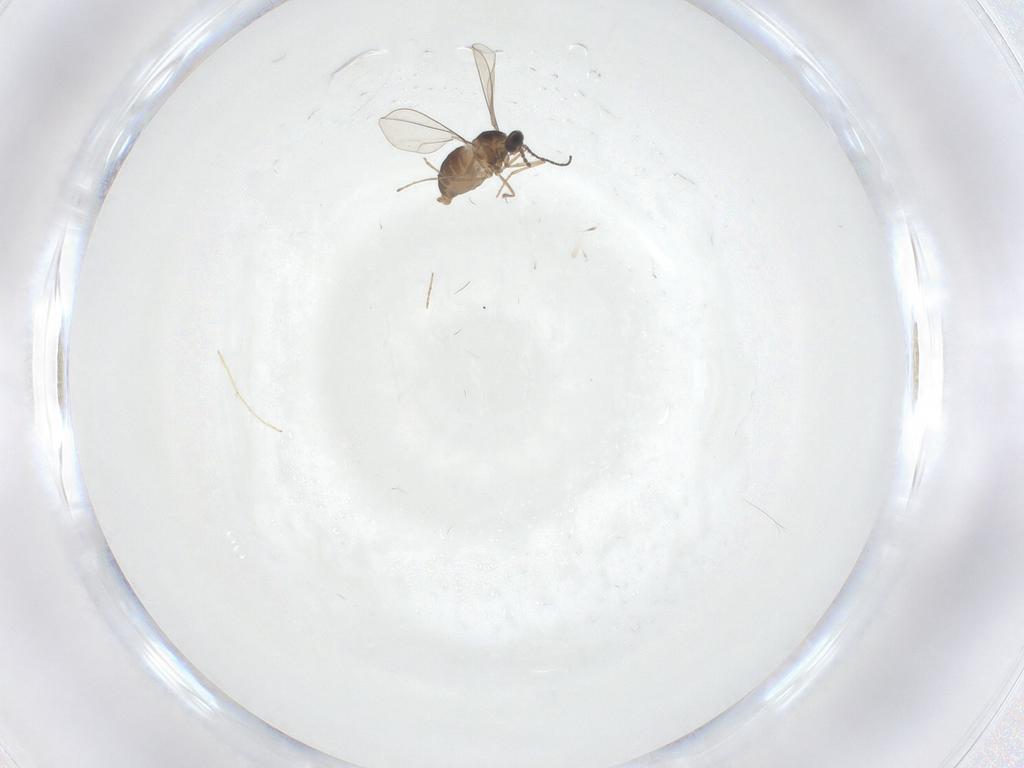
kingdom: Animalia
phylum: Arthropoda
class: Insecta
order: Diptera
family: Cecidomyiidae
